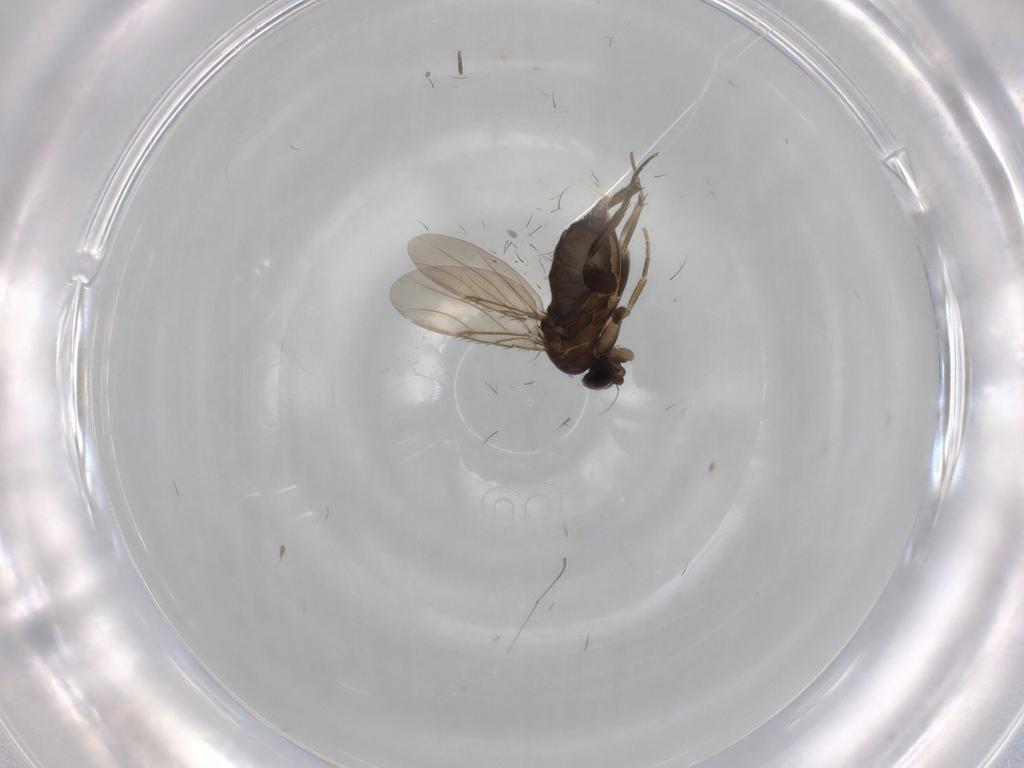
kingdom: Animalia
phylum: Arthropoda
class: Insecta
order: Diptera
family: Phoridae
